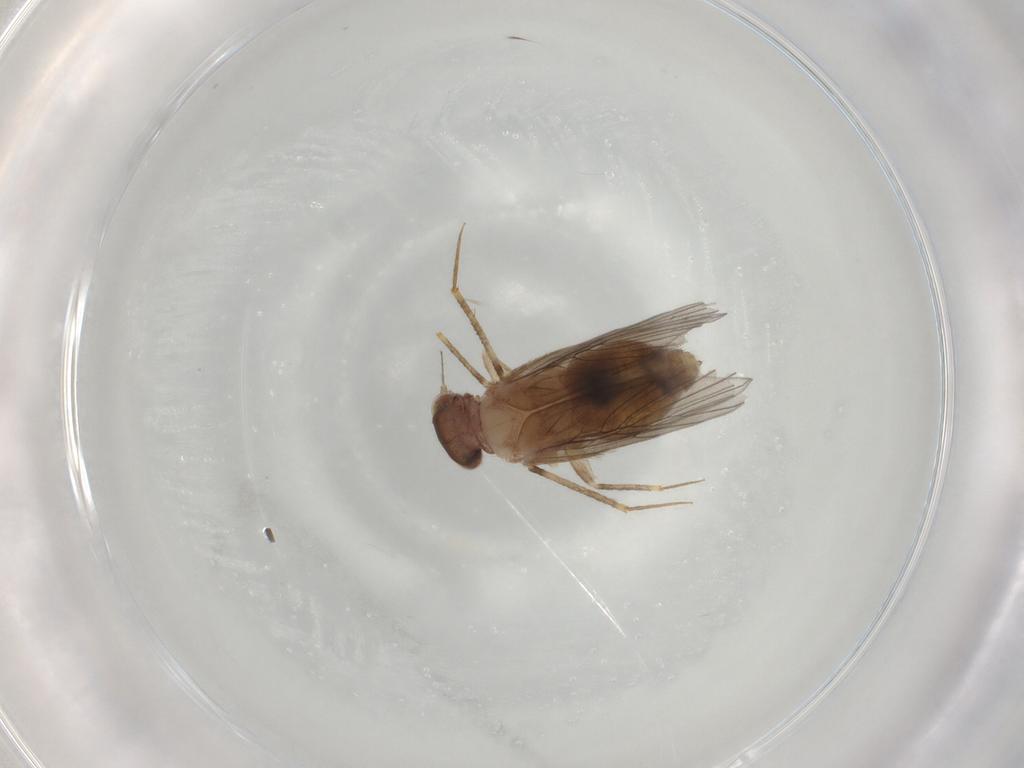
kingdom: Animalia
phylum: Arthropoda
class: Insecta
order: Psocodea
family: Lepidopsocidae
